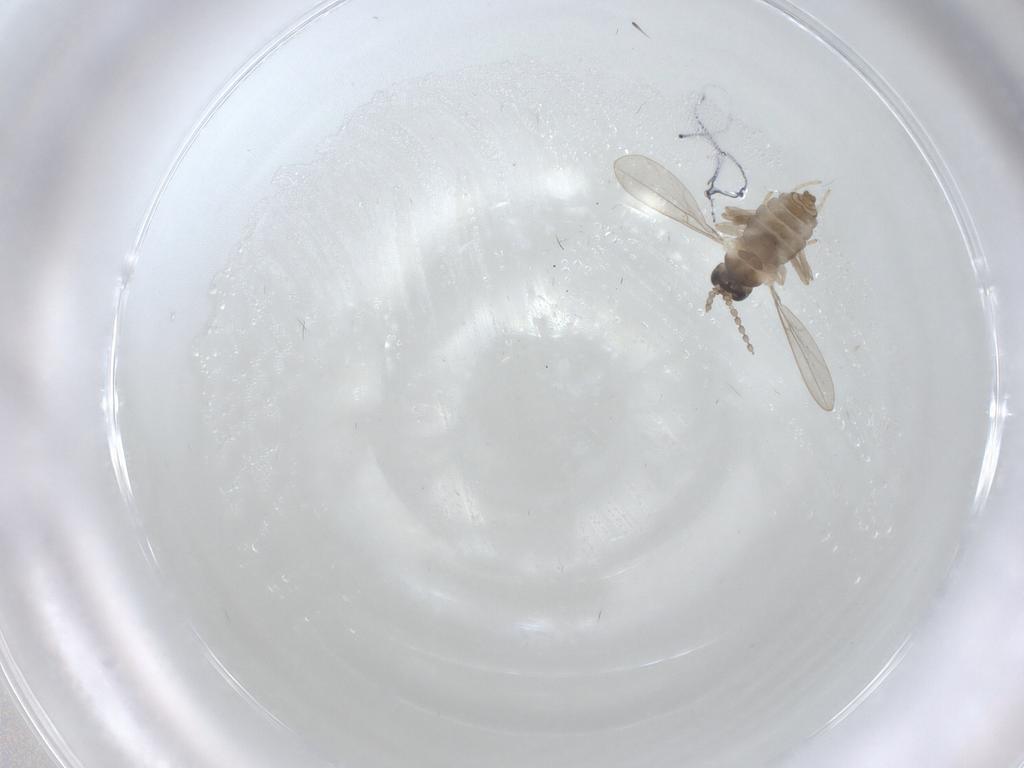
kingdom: Animalia
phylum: Arthropoda
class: Insecta
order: Diptera
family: Cecidomyiidae
